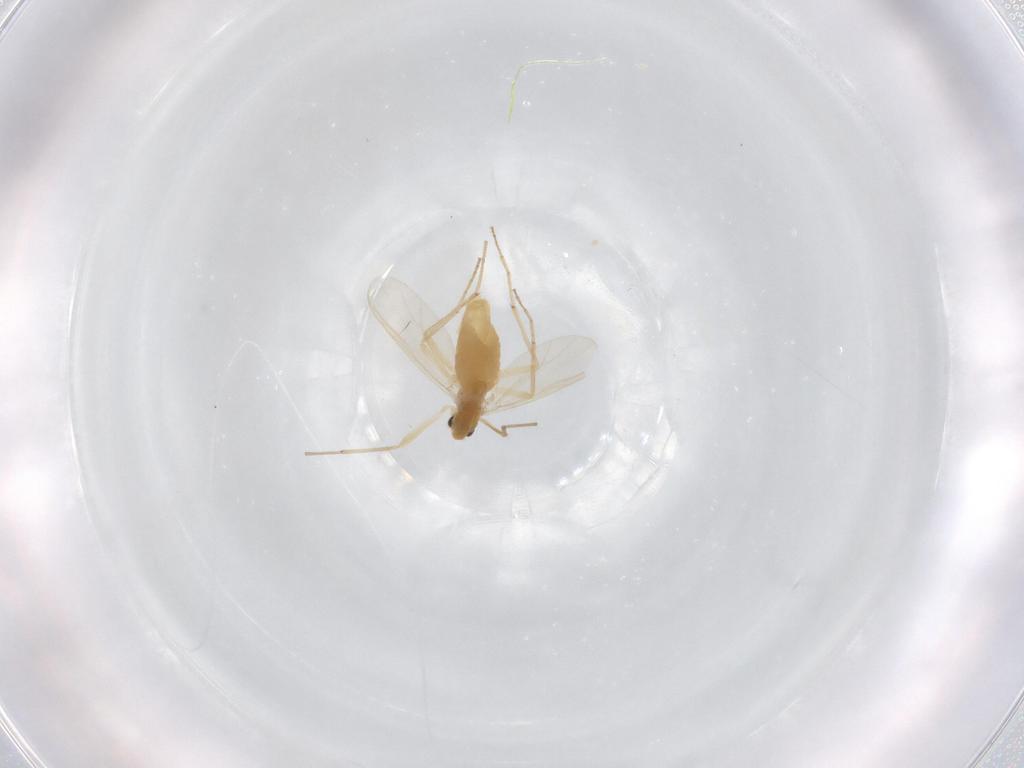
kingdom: Animalia
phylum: Arthropoda
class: Insecta
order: Diptera
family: Chironomidae
